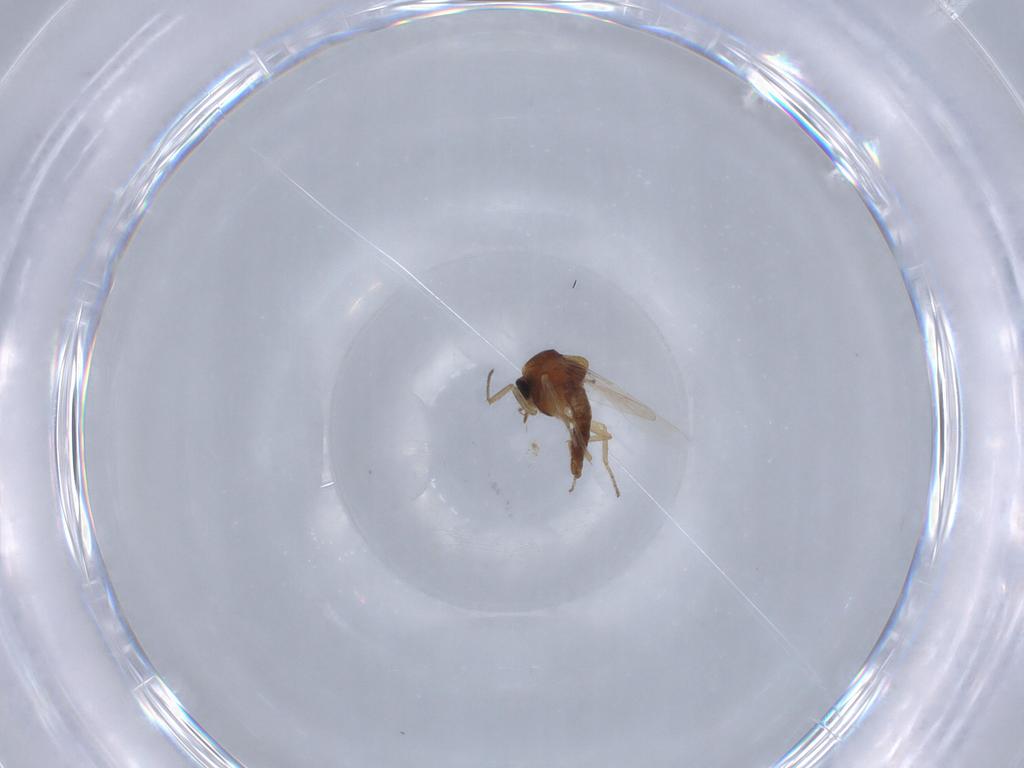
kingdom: Animalia
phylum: Arthropoda
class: Insecta
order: Diptera
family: Ceratopogonidae
